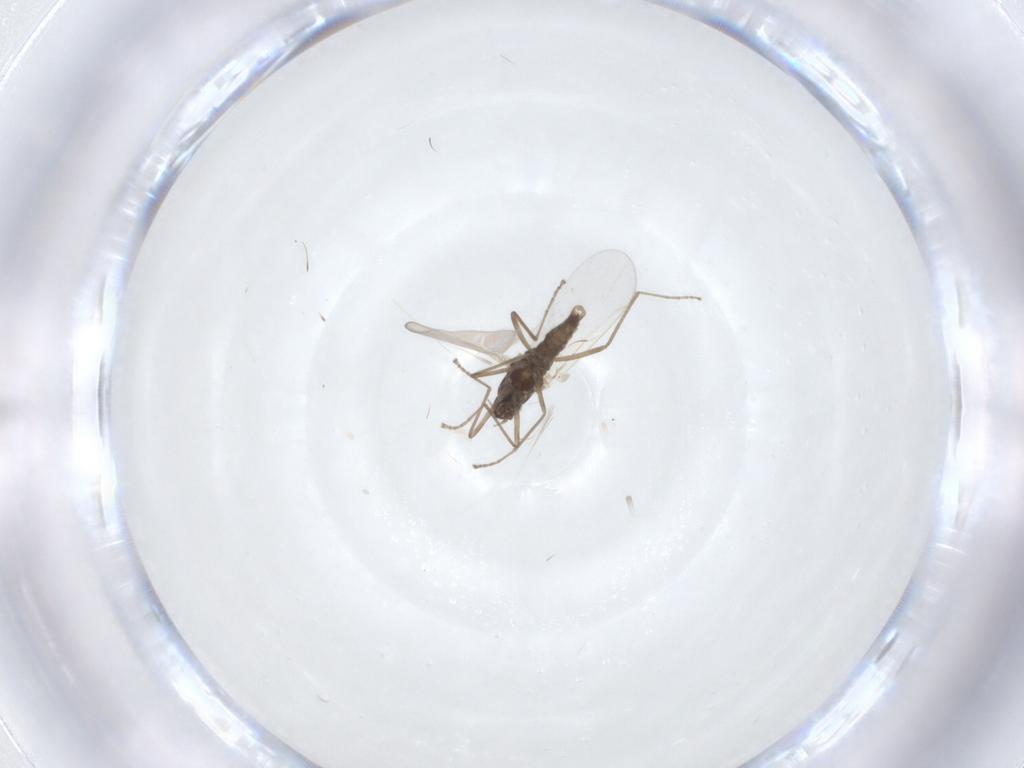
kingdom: Animalia
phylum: Arthropoda
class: Insecta
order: Diptera
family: Cecidomyiidae
